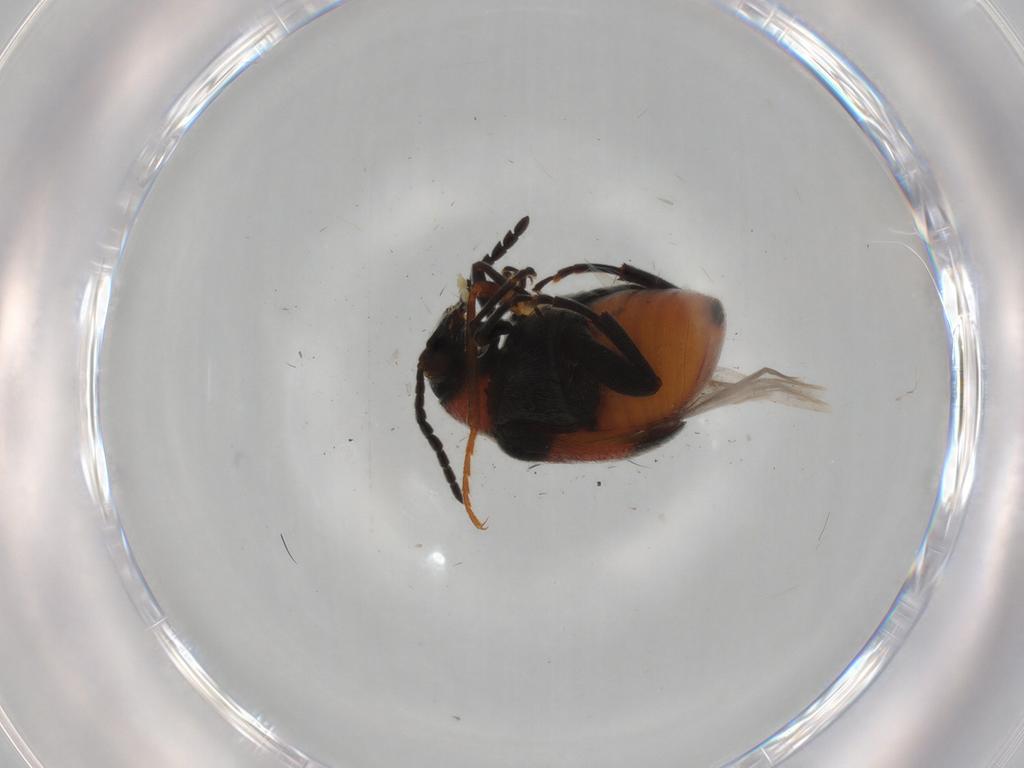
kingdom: Animalia
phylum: Arthropoda
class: Insecta
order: Coleoptera
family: Chrysomelidae
